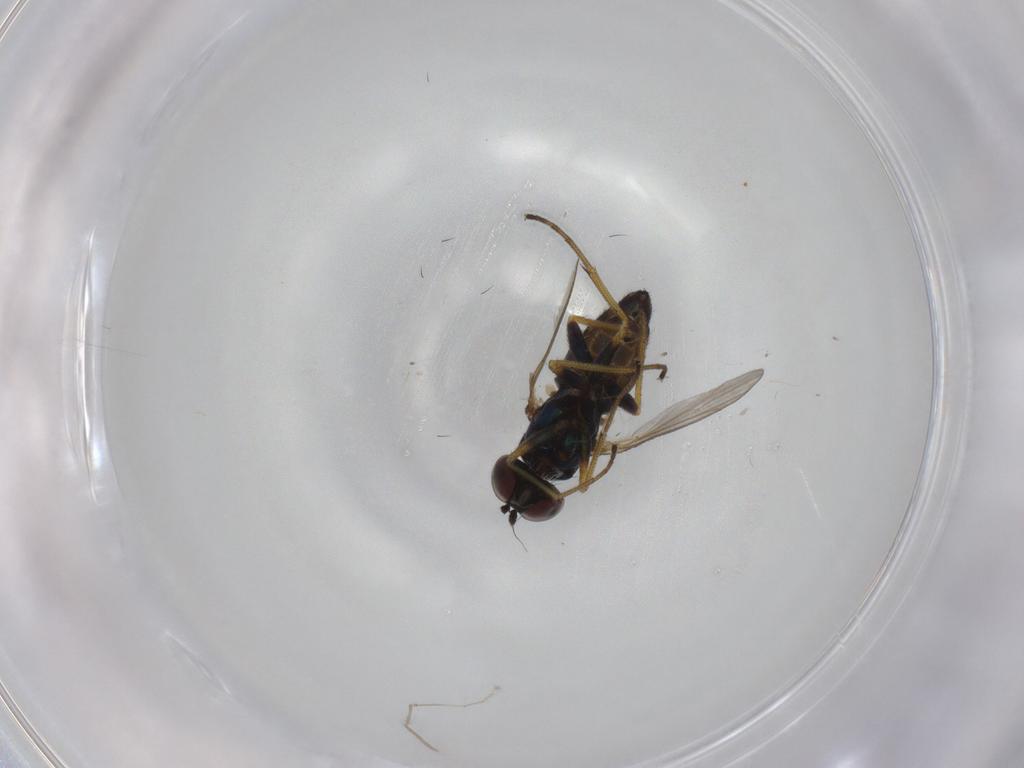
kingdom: Animalia
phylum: Arthropoda
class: Insecta
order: Diptera
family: Dolichopodidae
